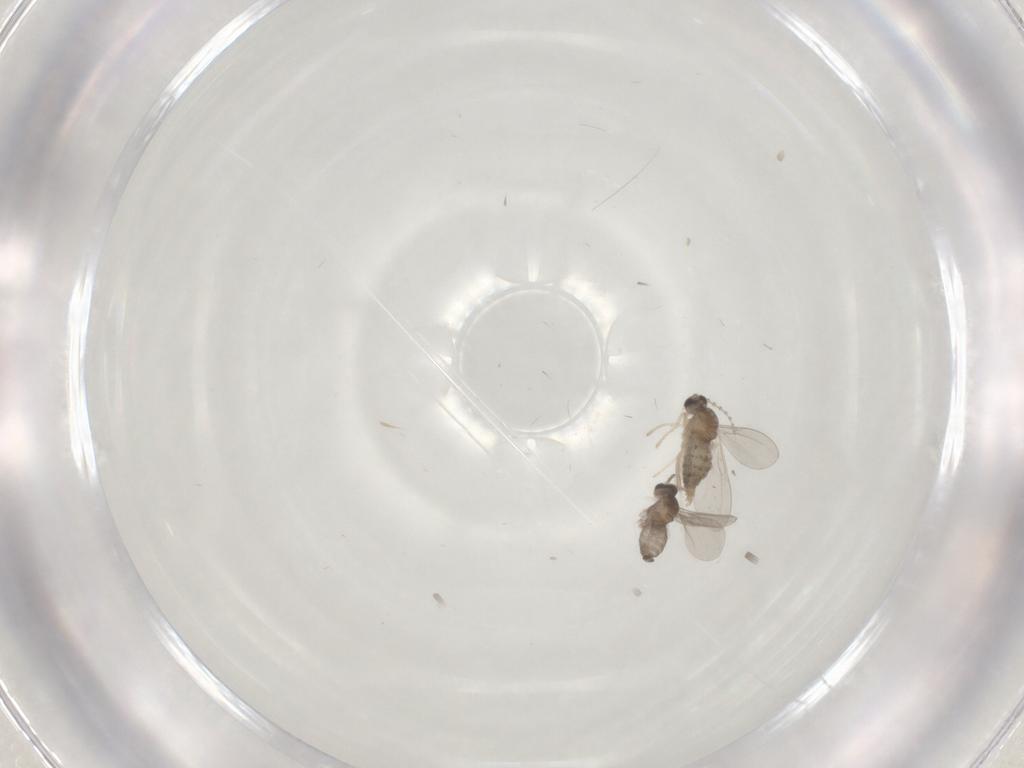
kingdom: Animalia
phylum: Arthropoda
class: Insecta
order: Diptera
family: Cecidomyiidae
